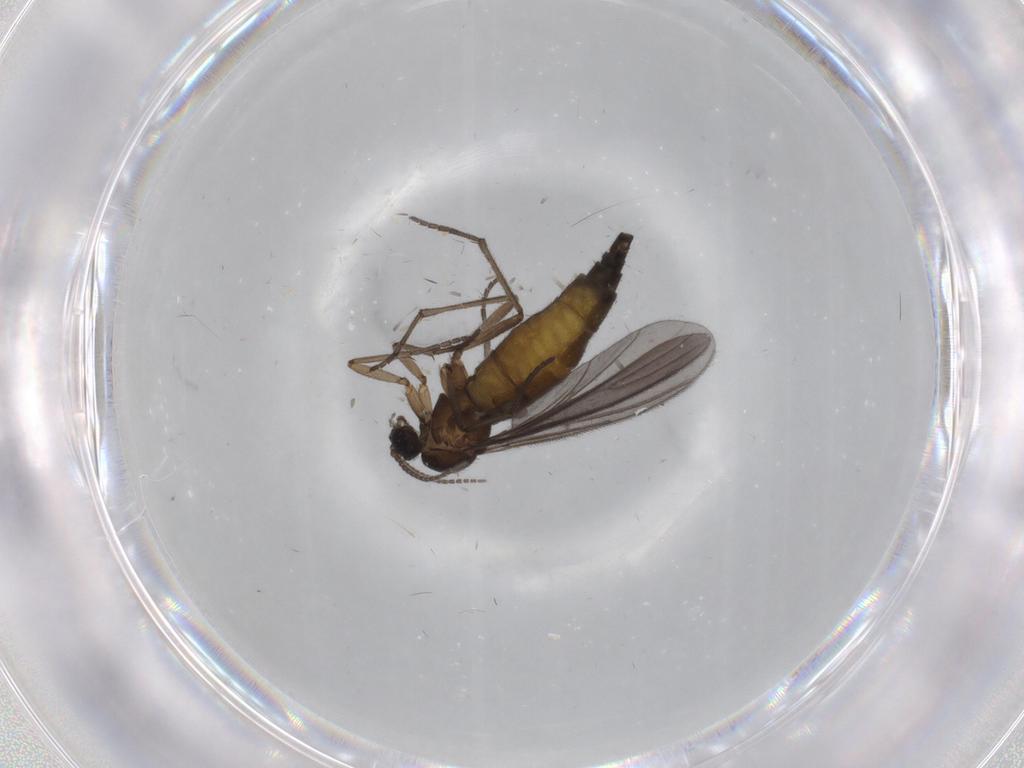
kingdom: Animalia
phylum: Arthropoda
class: Insecta
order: Diptera
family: Sciaridae
